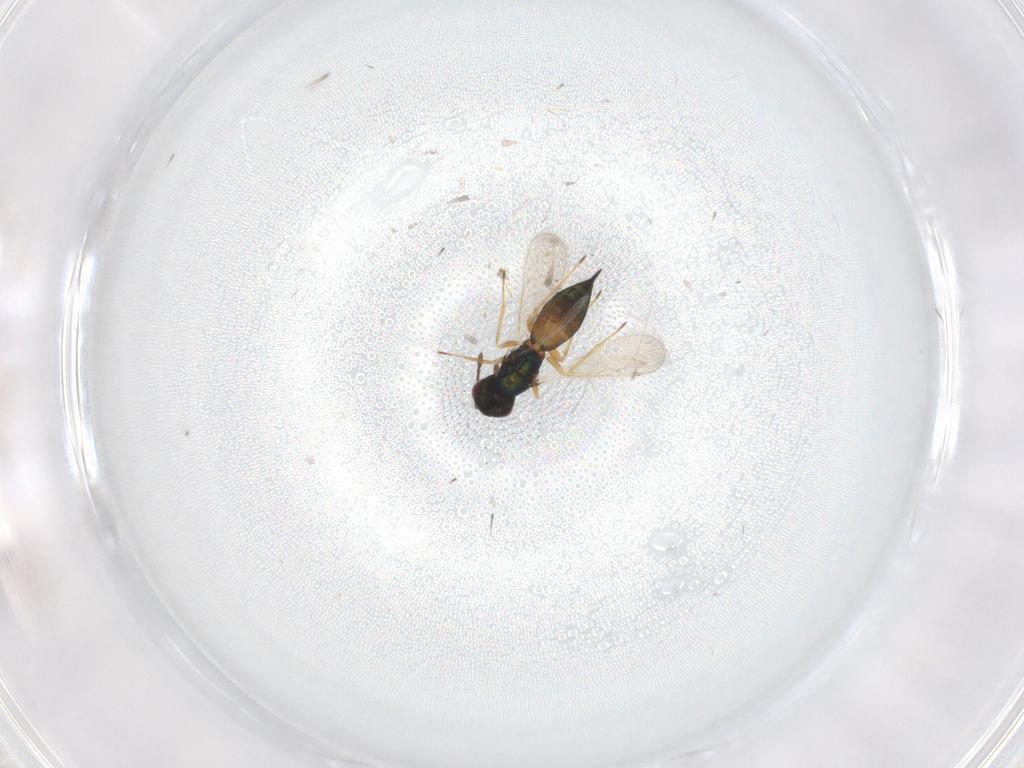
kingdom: Animalia
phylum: Arthropoda
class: Insecta
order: Hymenoptera
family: Eulophidae
